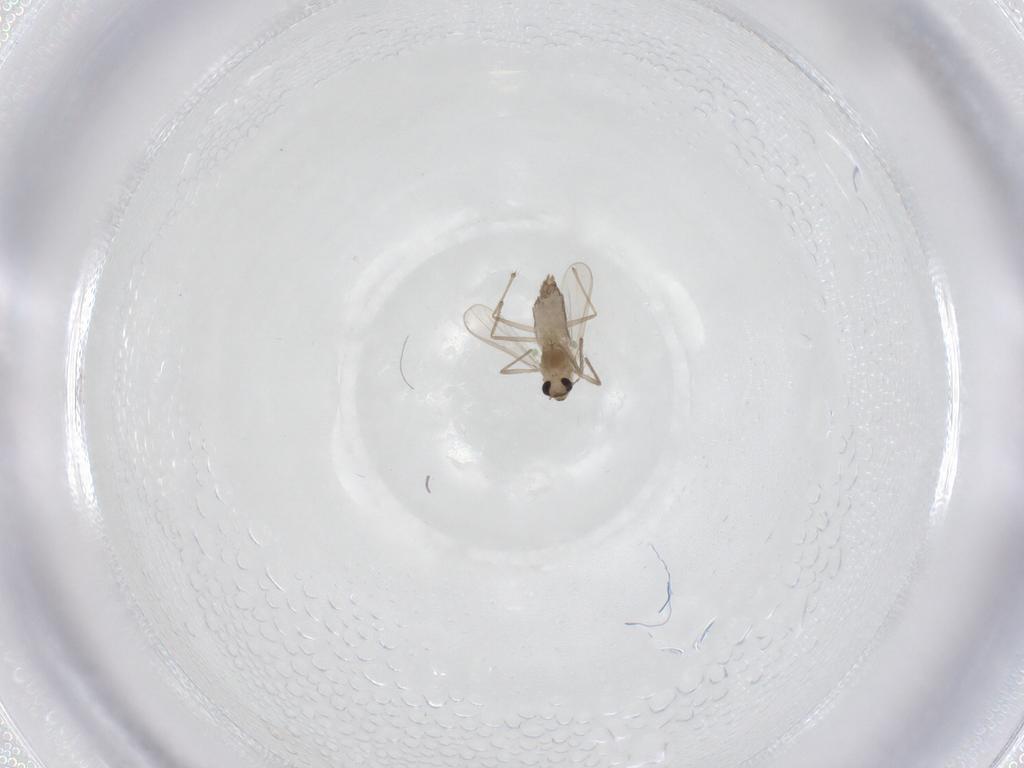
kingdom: Animalia
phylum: Arthropoda
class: Insecta
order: Diptera
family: Chironomidae
